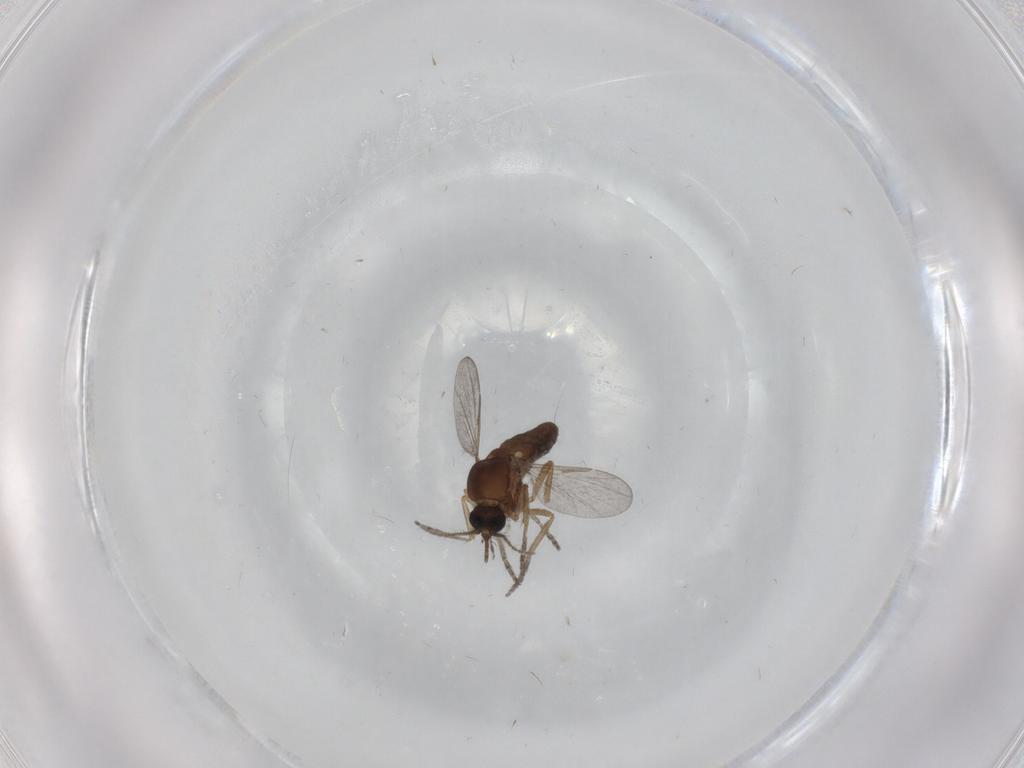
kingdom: Animalia
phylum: Arthropoda
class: Insecta
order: Diptera
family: Ceratopogonidae
